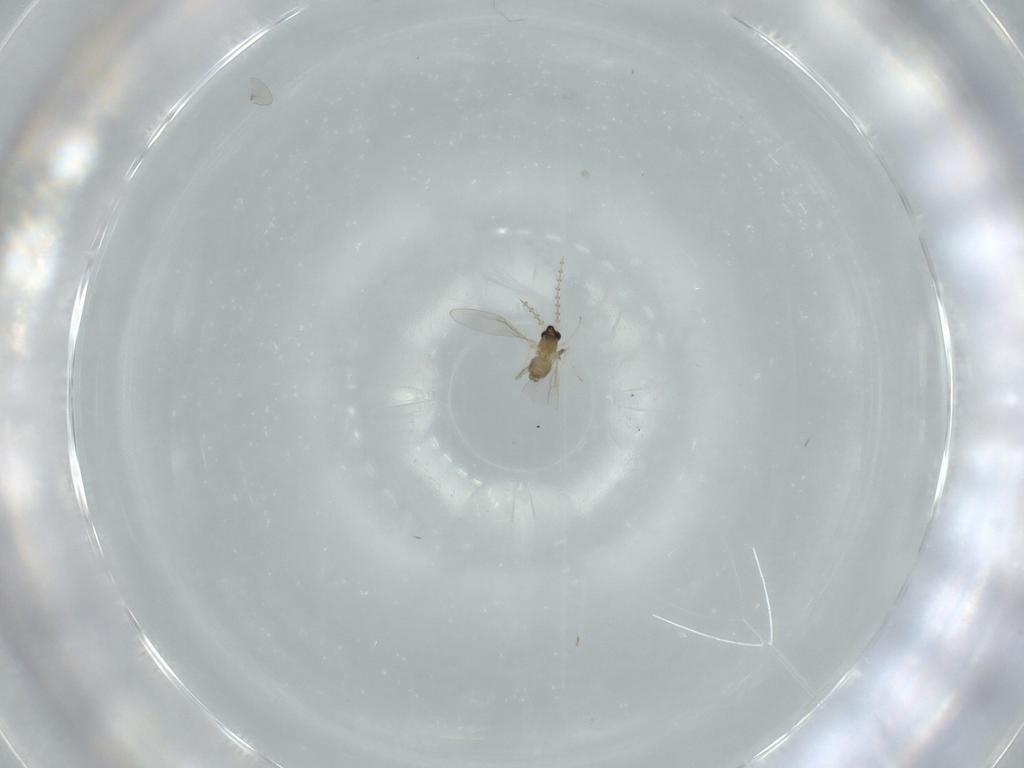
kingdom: Animalia
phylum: Arthropoda
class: Insecta
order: Diptera
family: Cecidomyiidae
